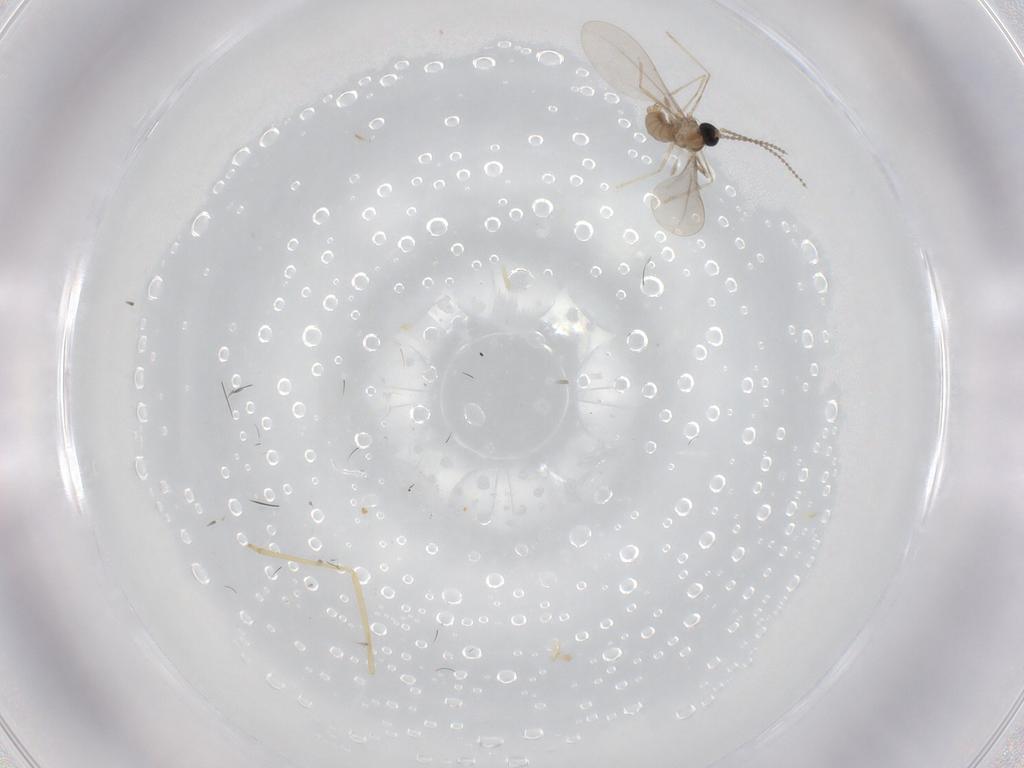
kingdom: Animalia
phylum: Arthropoda
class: Insecta
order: Diptera
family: Cecidomyiidae
